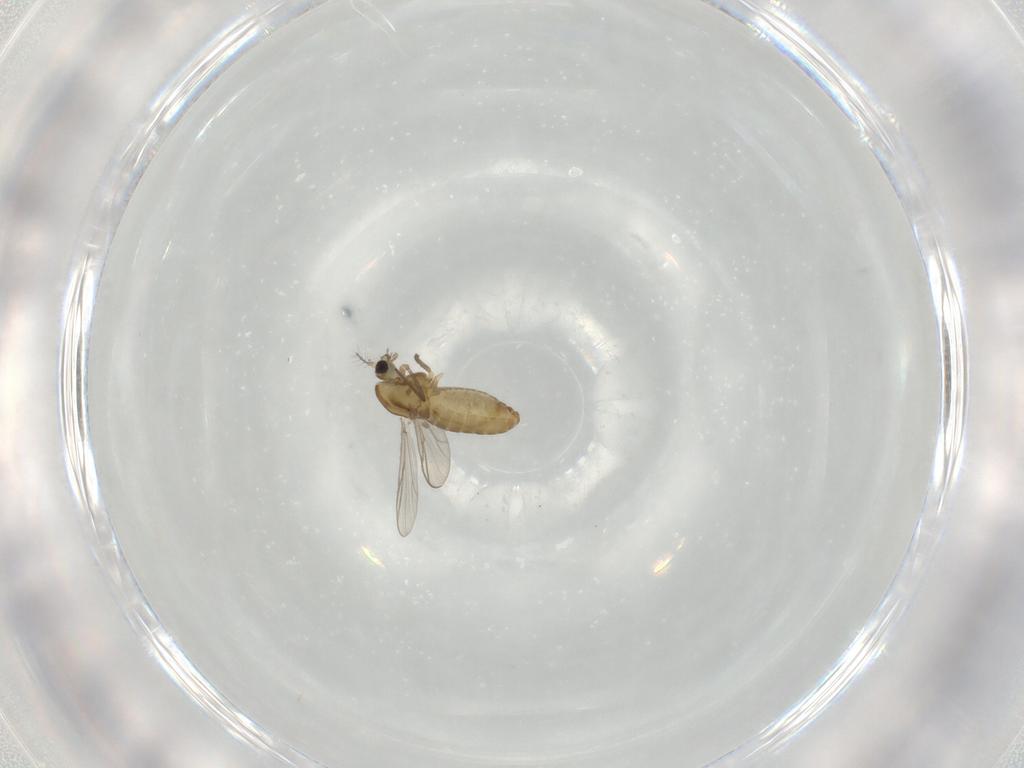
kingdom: Animalia
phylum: Arthropoda
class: Insecta
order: Diptera
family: Chironomidae
